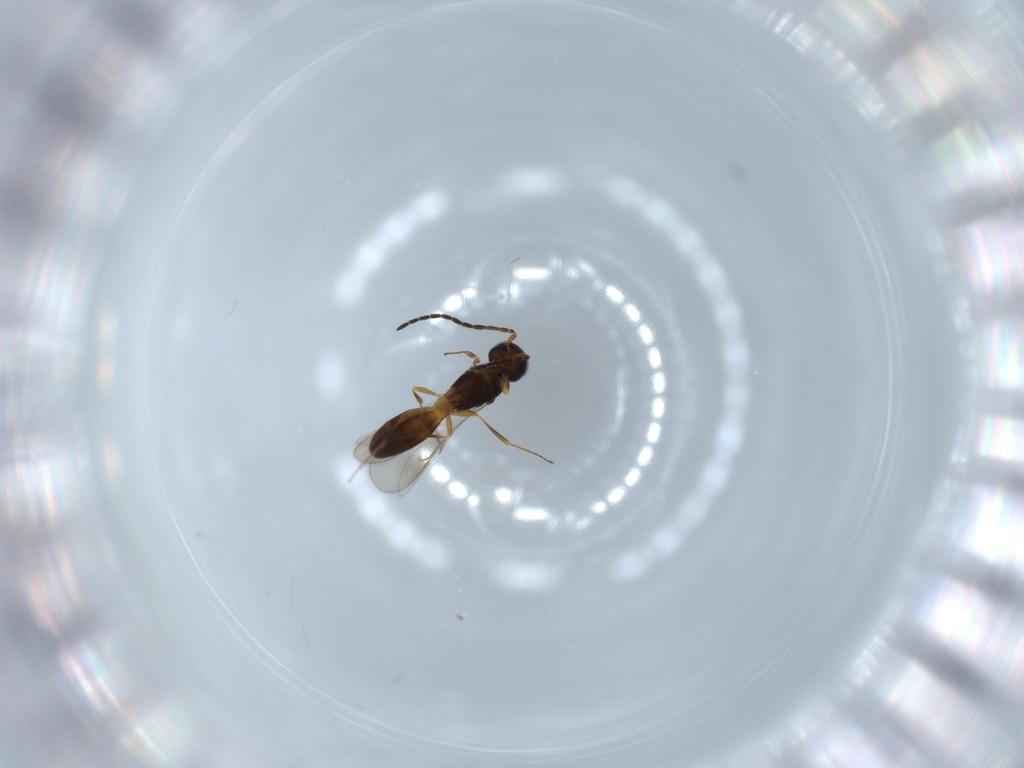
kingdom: Animalia
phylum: Arthropoda
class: Insecta
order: Hymenoptera
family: Scelionidae
